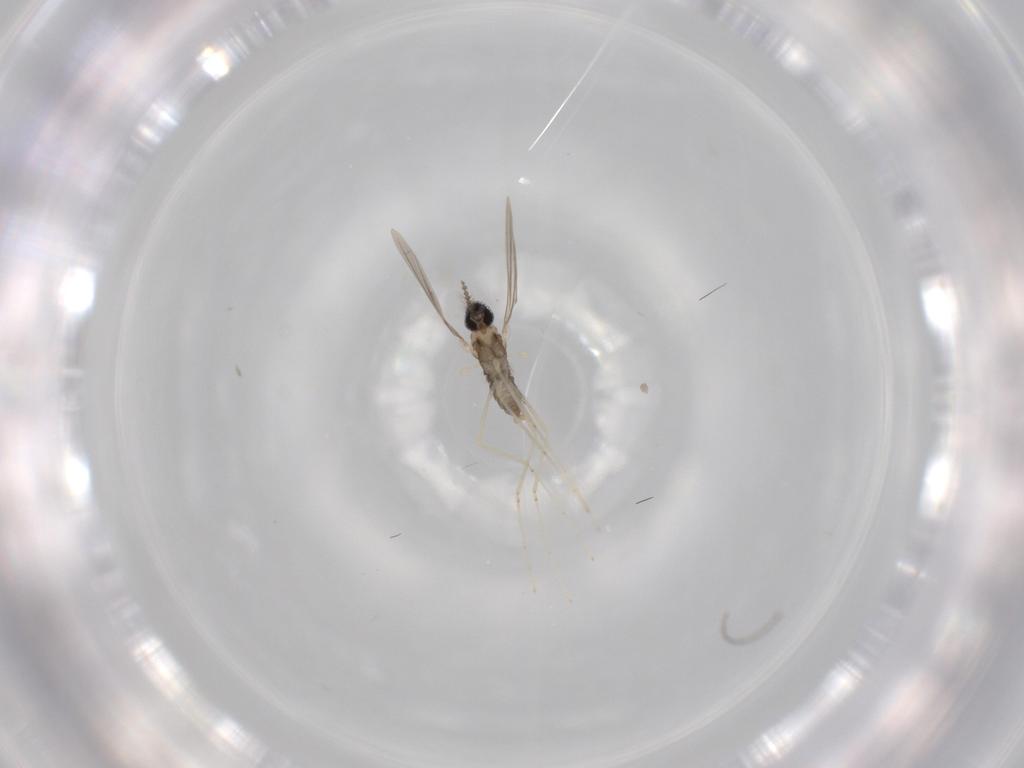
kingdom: Animalia
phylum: Arthropoda
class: Insecta
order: Diptera
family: Cecidomyiidae
